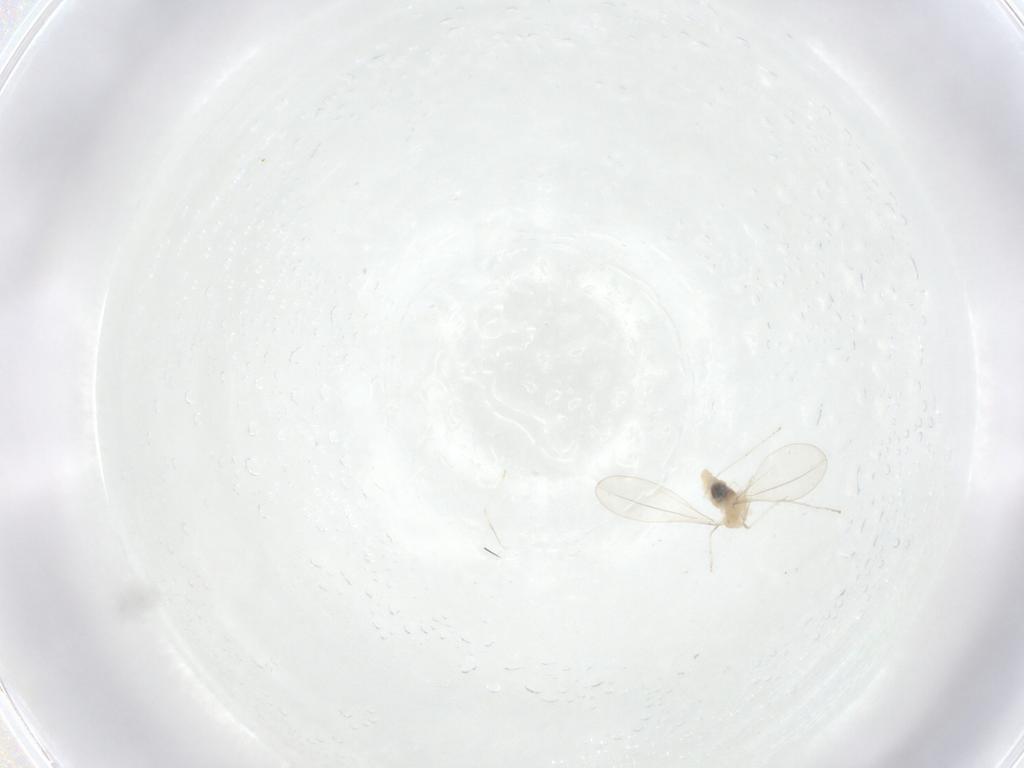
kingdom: Animalia
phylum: Arthropoda
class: Insecta
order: Diptera
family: Cecidomyiidae
